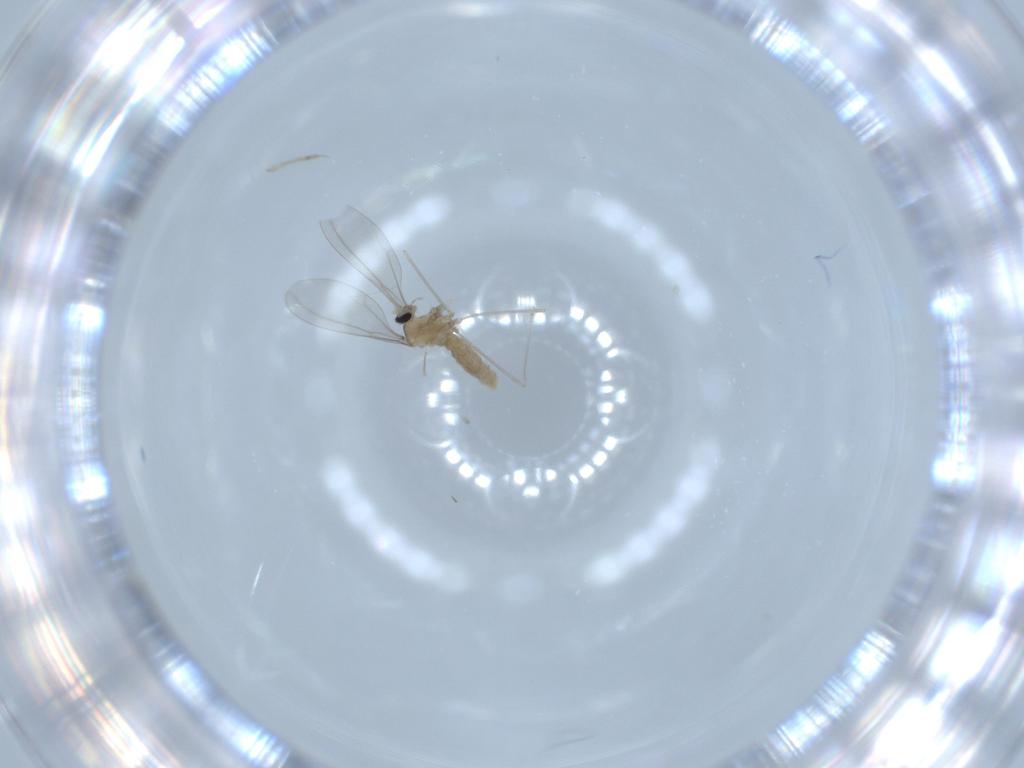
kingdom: Animalia
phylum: Arthropoda
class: Insecta
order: Diptera
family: Cecidomyiidae
